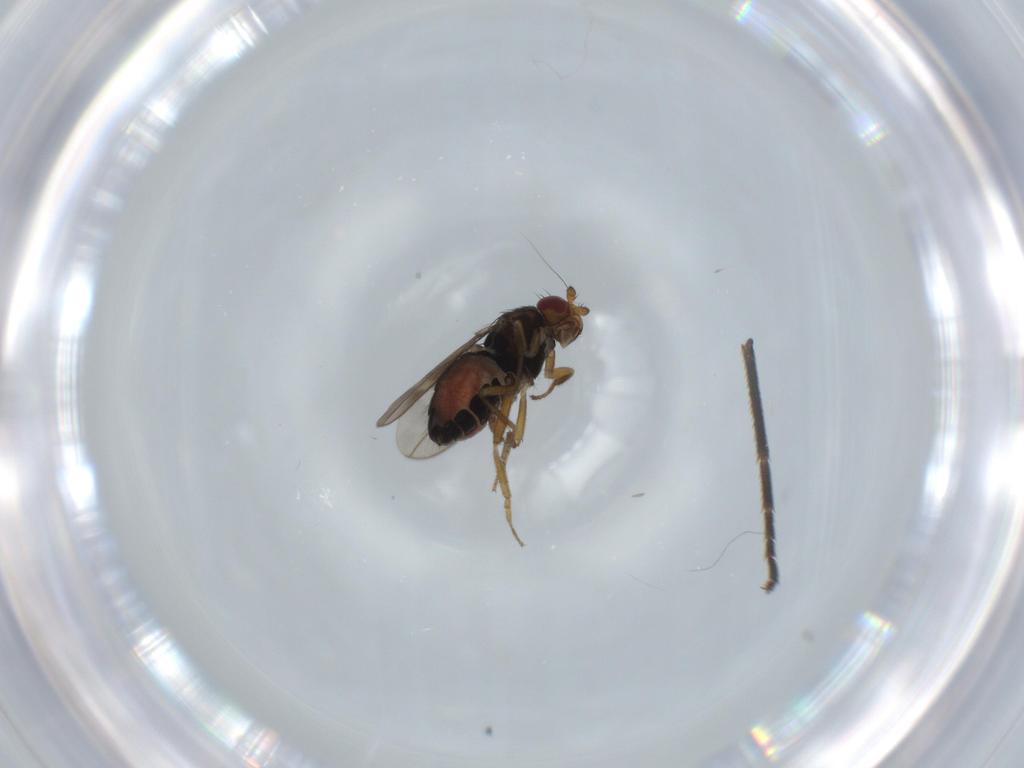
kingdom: Animalia
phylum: Arthropoda
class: Insecta
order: Diptera
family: Sphaeroceridae
